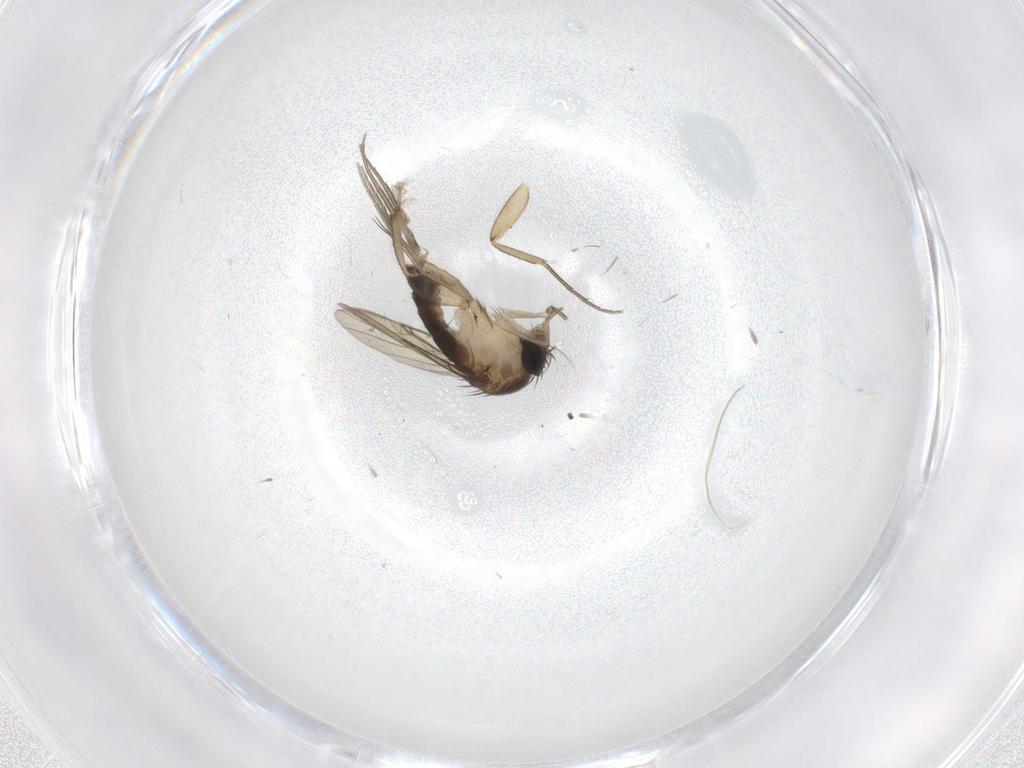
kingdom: Animalia
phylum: Arthropoda
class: Insecta
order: Diptera
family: Phoridae
